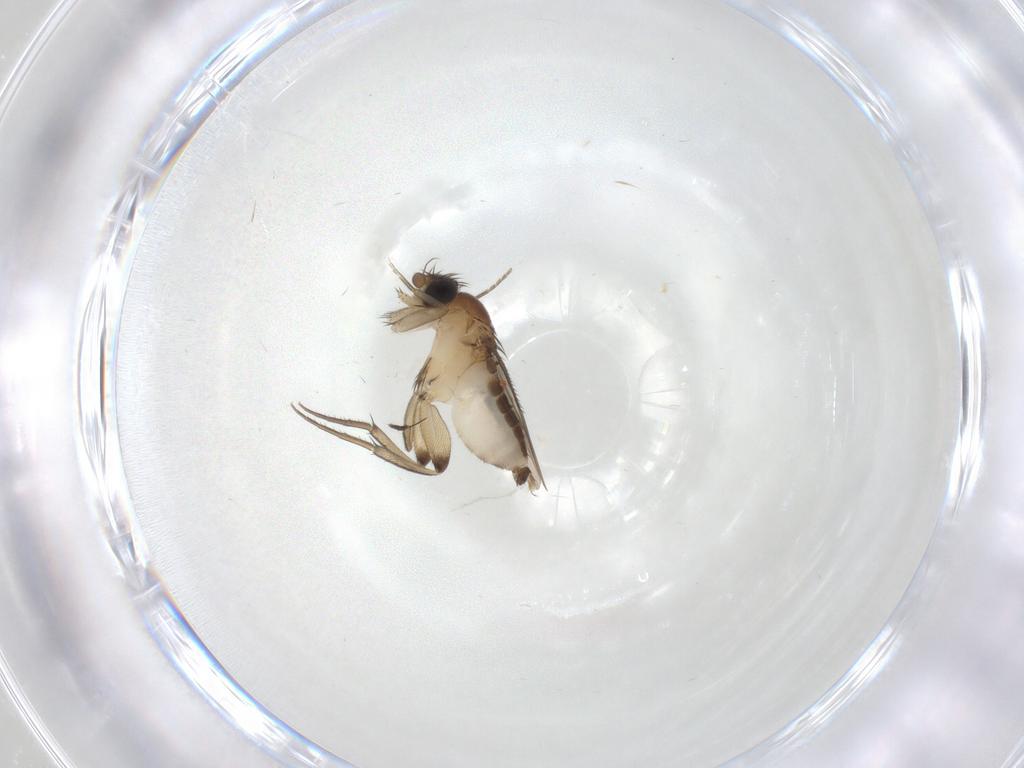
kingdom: Animalia
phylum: Arthropoda
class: Insecta
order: Diptera
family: Phoridae
